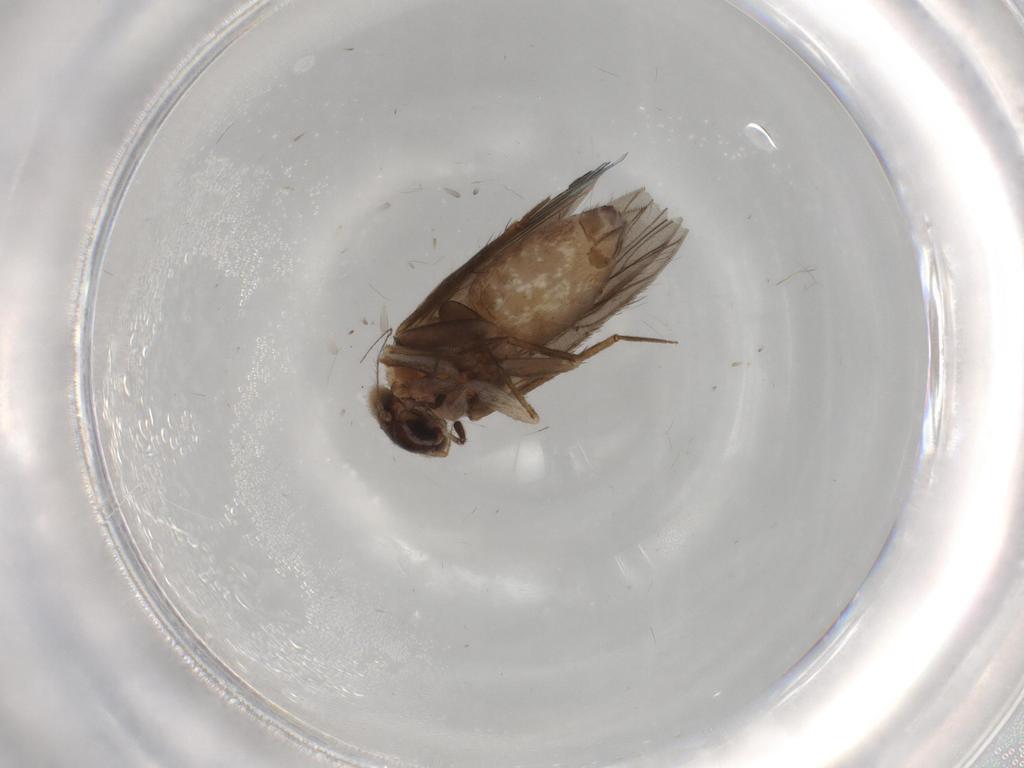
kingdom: Animalia
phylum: Arthropoda
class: Insecta
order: Psocodea
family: Lepidopsocidae
